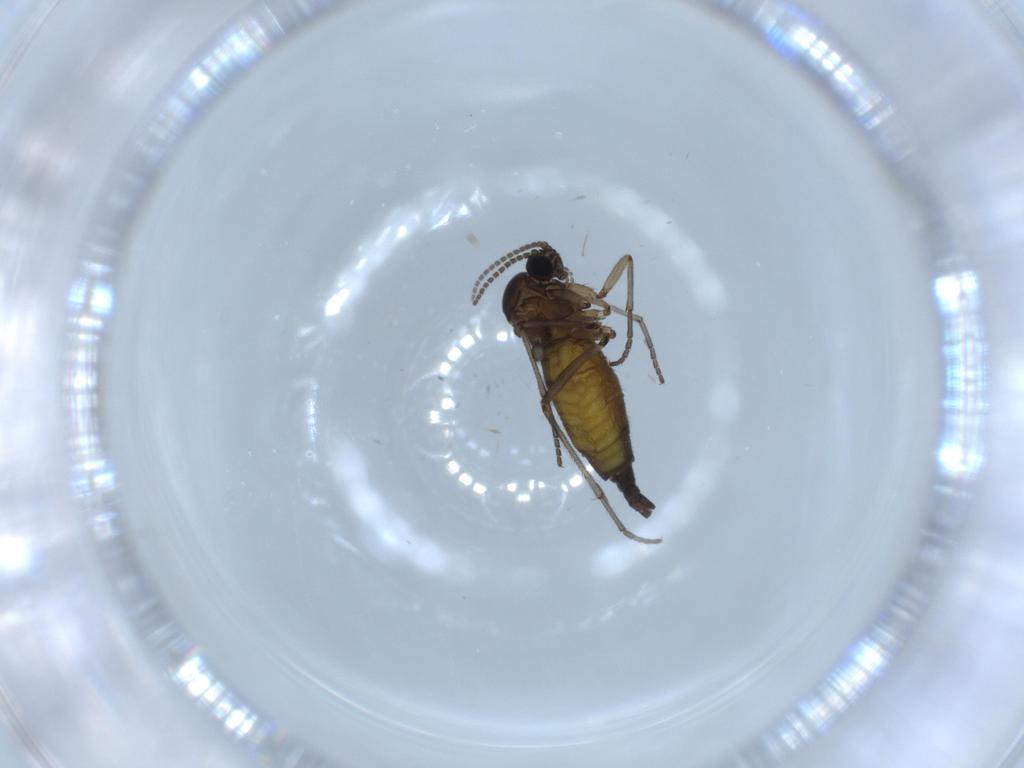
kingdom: Animalia
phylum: Arthropoda
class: Insecta
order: Diptera
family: Sciaridae
